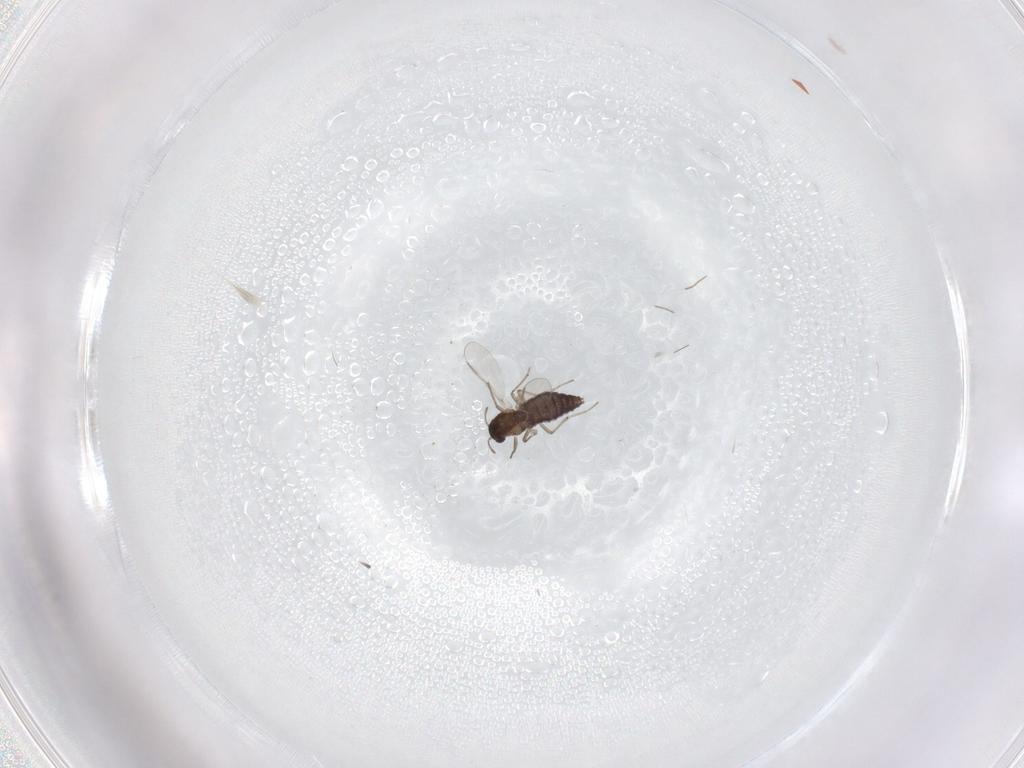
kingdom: Animalia
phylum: Arthropoda
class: Insecta
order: Diptera
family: Chironomidae
